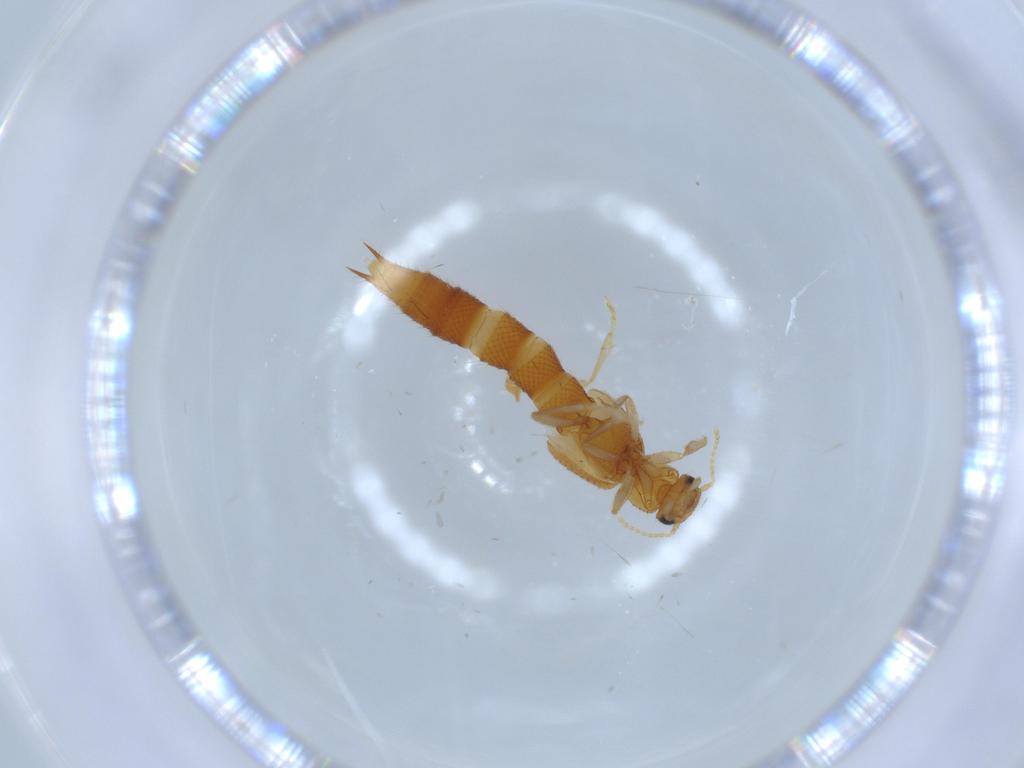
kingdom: Animalia
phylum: Arthropoda
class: Insecta
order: Coleoptera
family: Staphylinidae
